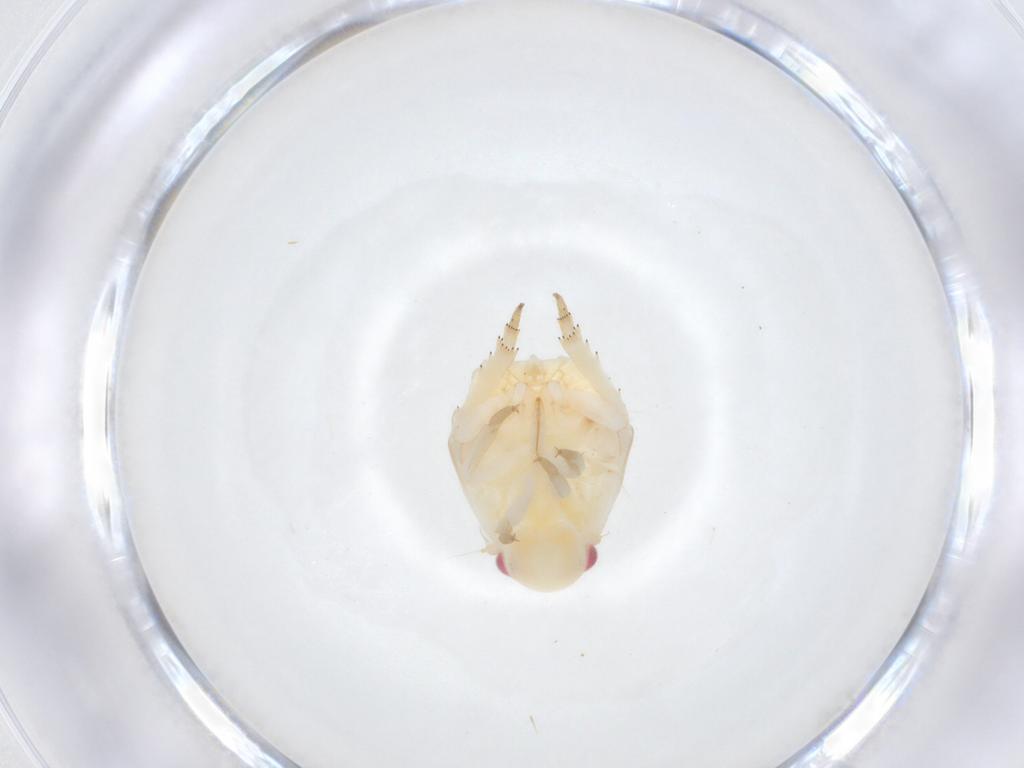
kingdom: Animalia
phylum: Arthropoda
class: Insecta
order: Hemiptera
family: Flatidae
